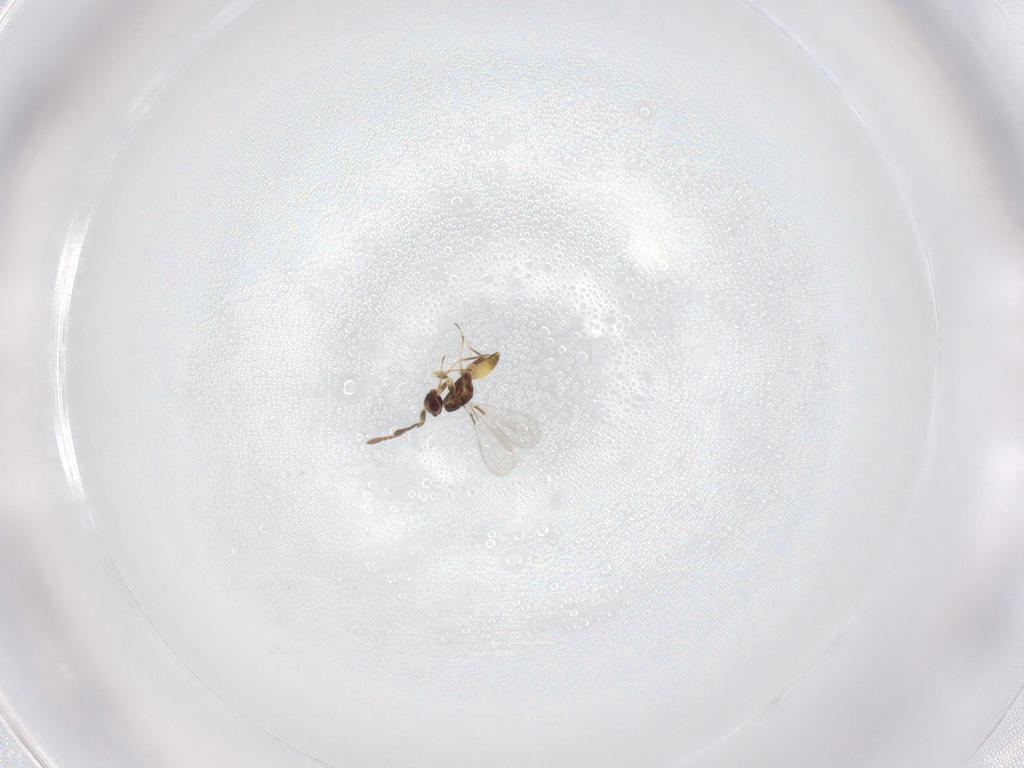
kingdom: Animalia
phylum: Arthropoda
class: Insecta
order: Hymenoptera
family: Mymaridae
